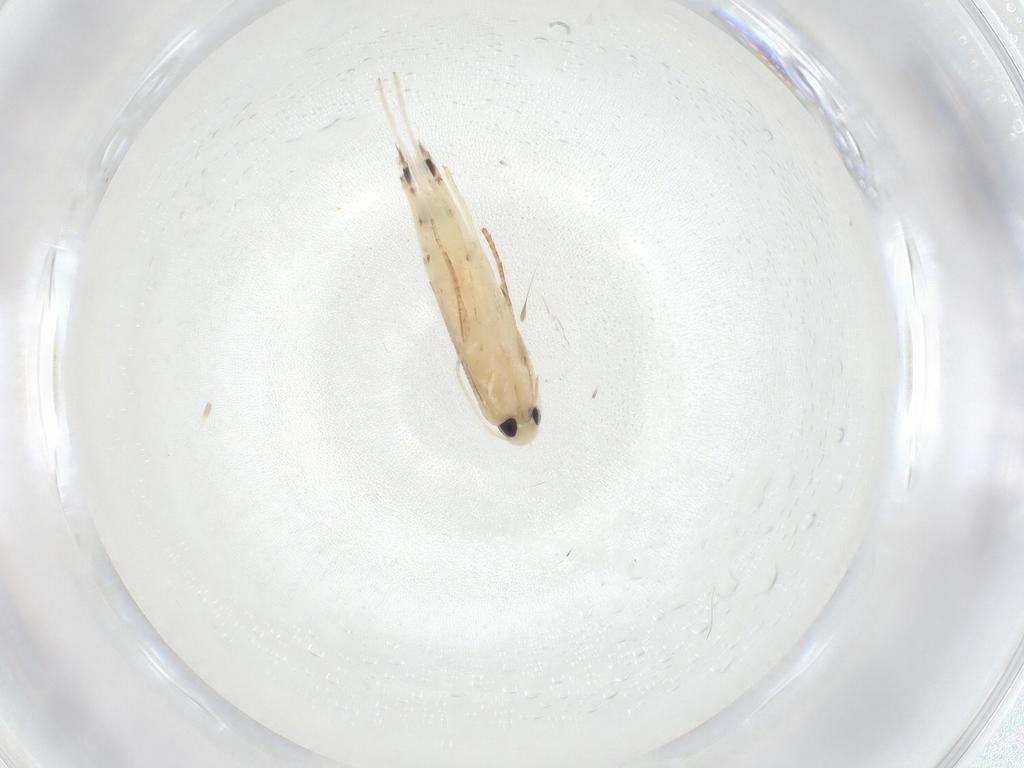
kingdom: Animalia
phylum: Arthropoda
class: Insecta
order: Lepidoptera
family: Gracillariidae
